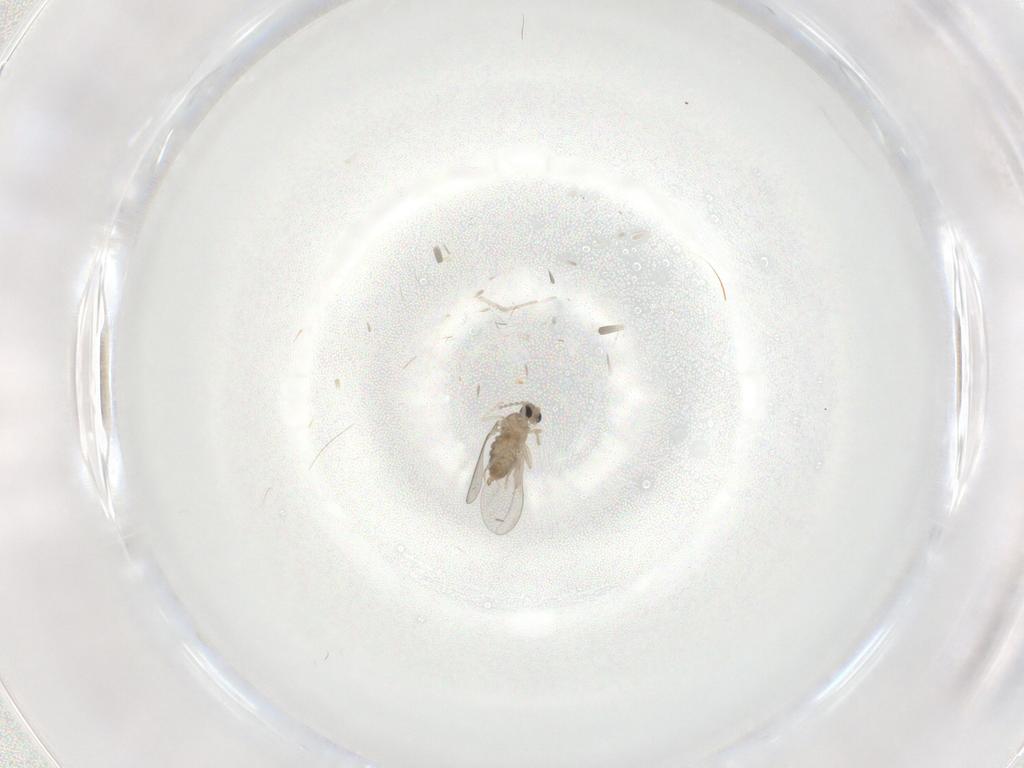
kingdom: Animalia
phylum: Arthropoda
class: Insecta
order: Diptera
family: Cecidomyiidae
